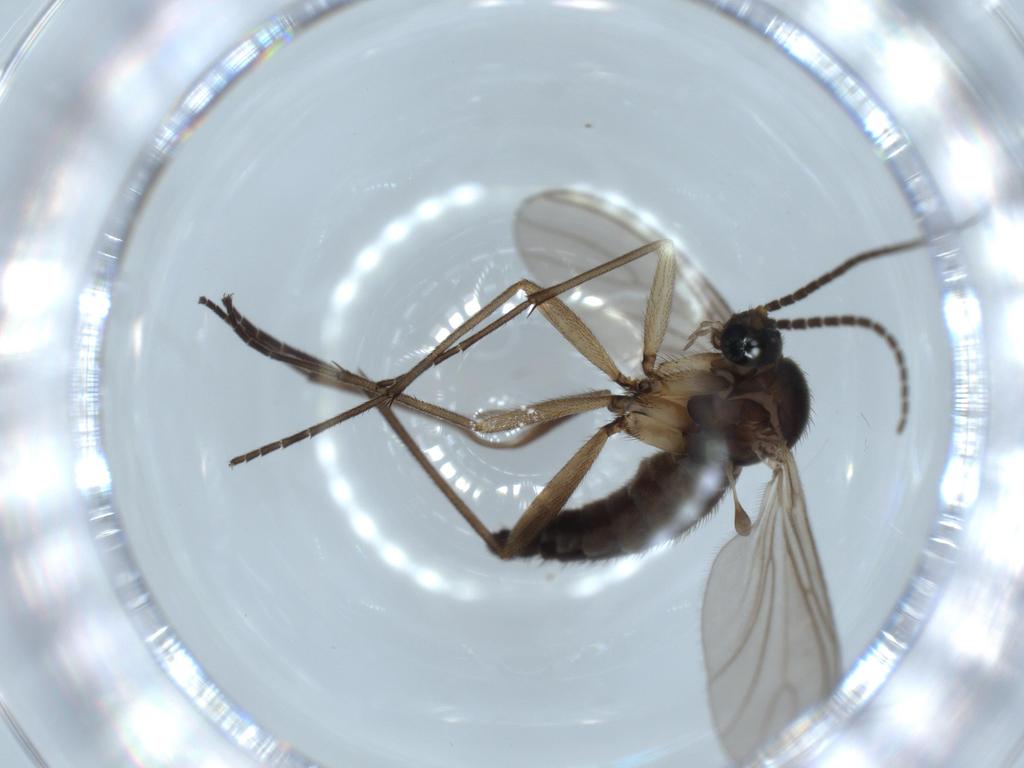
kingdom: Animalia
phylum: Arthropoda
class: Insecta
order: Diptera
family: Sciaridae
